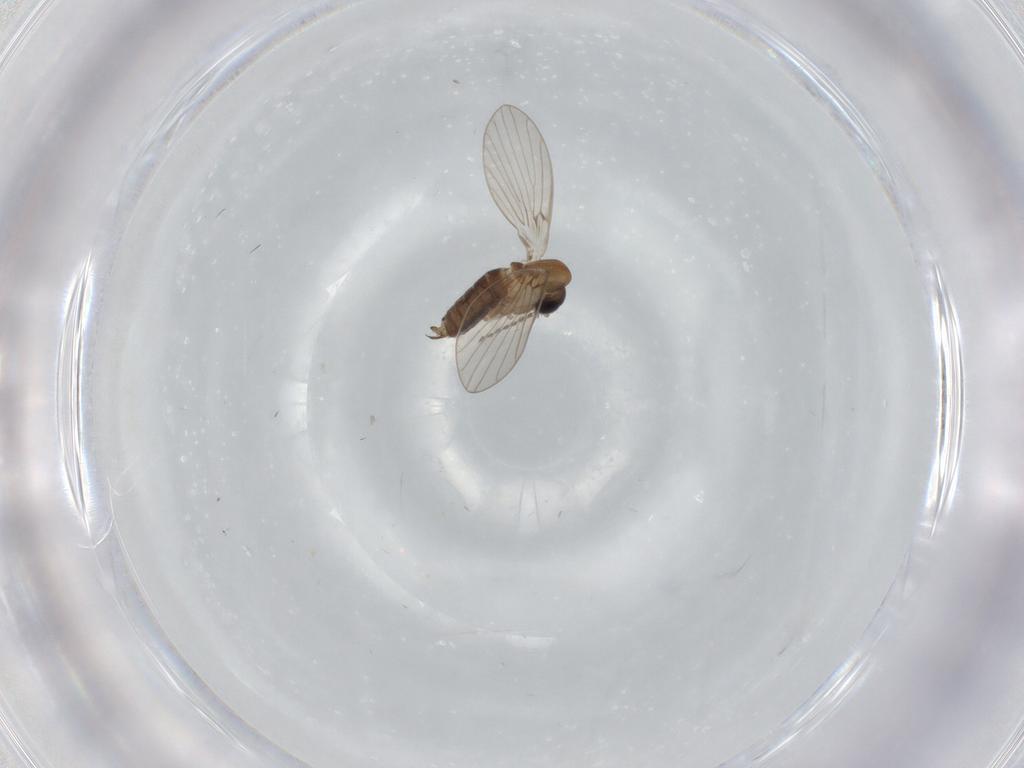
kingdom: Animalia
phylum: Arthropoda
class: Insecta
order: Diptera
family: Psychodidae
